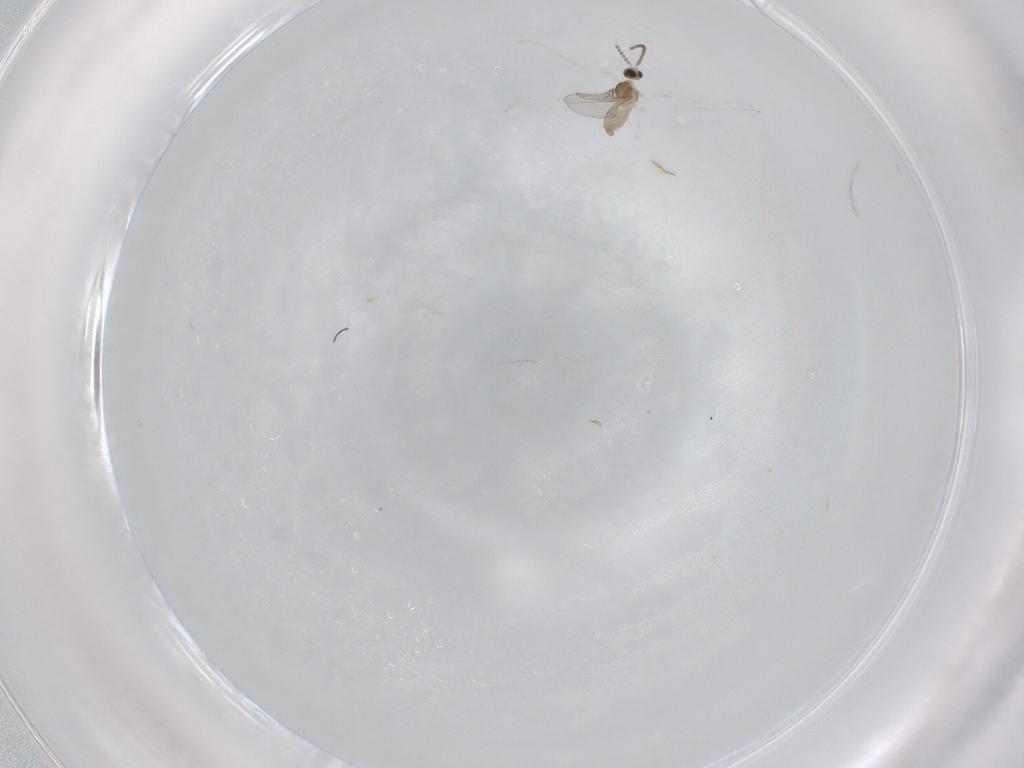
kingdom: Animalia
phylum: Arthropoda
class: Insecta
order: Diptera
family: Cecidomyiidae
